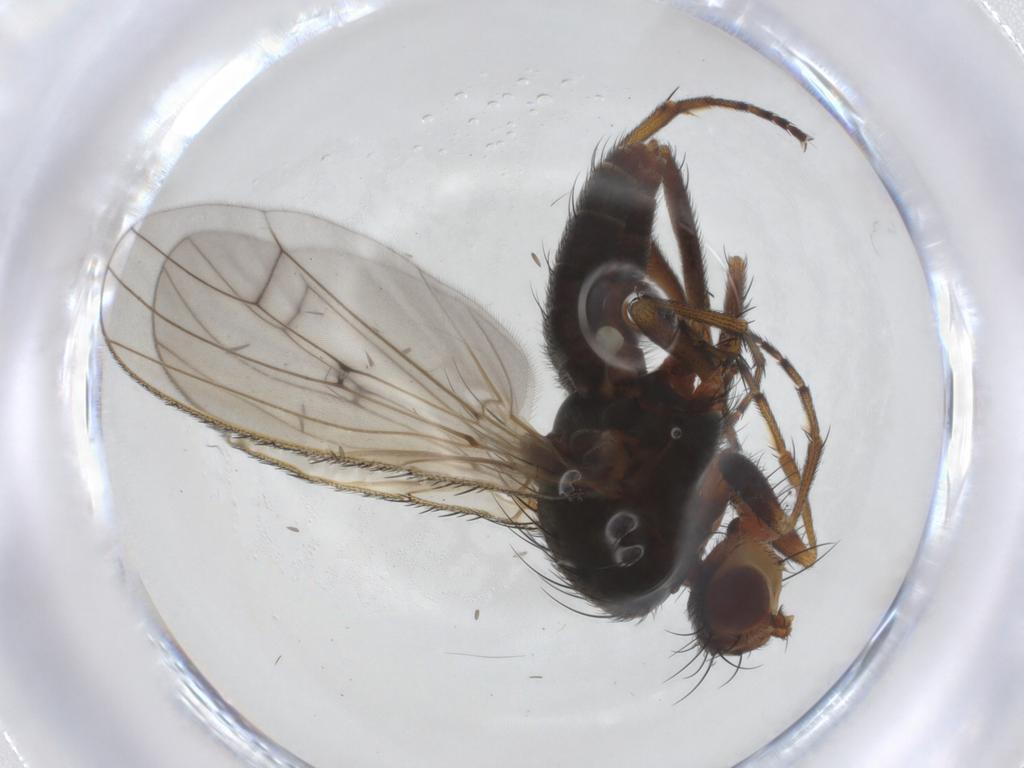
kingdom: Animalia
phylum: Arthropoda
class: Insecta
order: Diptera
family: Heleomyzidae
